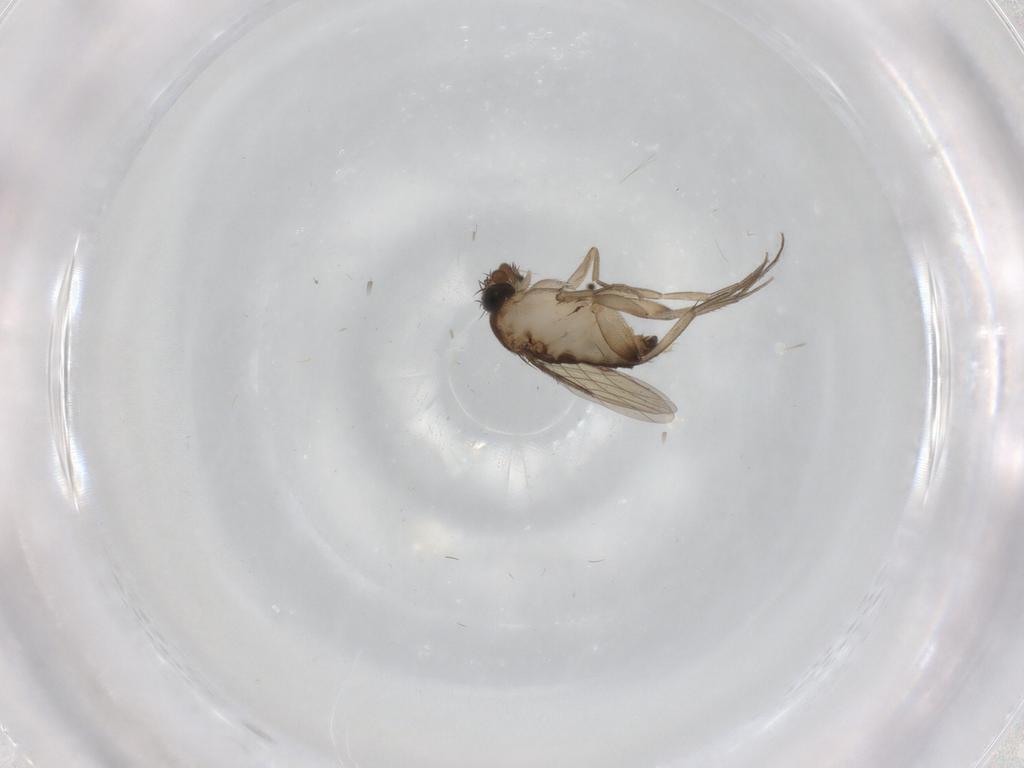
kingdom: Animalia
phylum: Arthropoda
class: Insecta
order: Diptera
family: Phoridae
